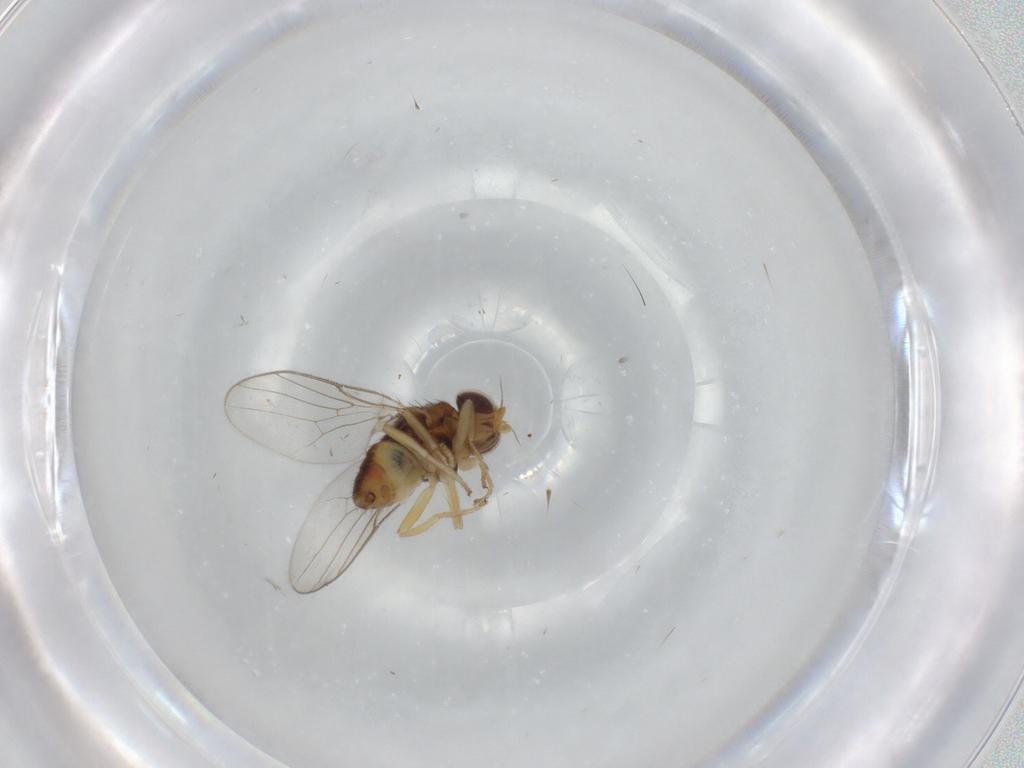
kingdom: Animalia
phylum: Arthropoda
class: Insecta
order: Diptera
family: Chloropidae
